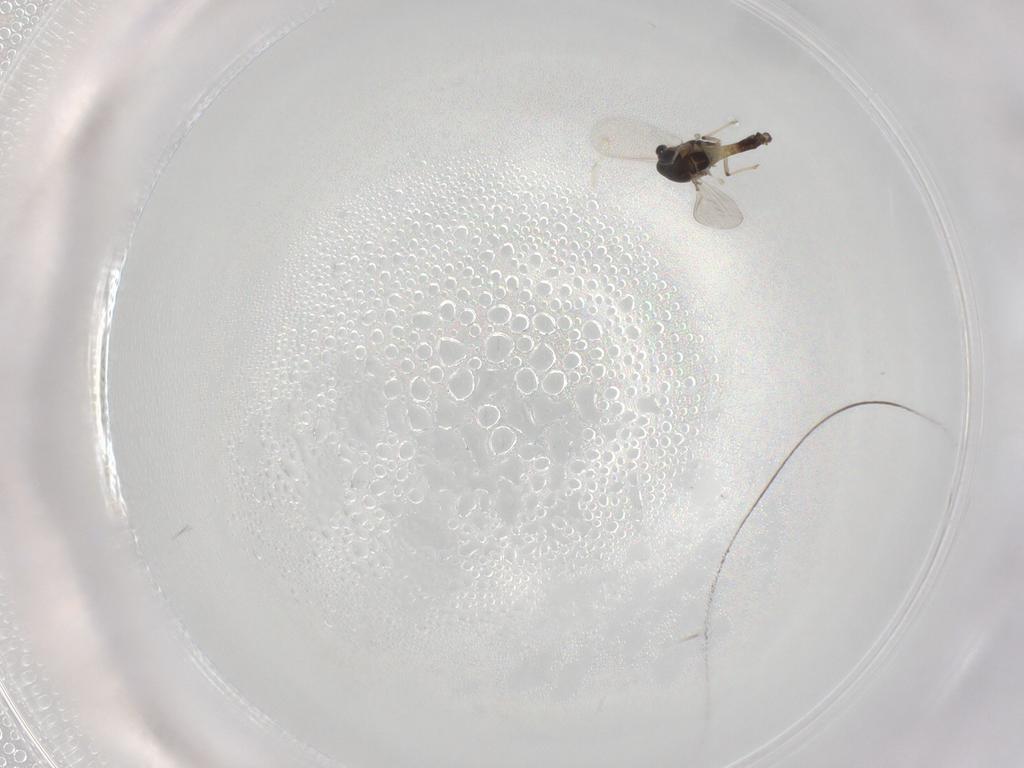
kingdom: Animalia
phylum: Arthropoda
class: Insecta
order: Diptera
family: Chironomidae
